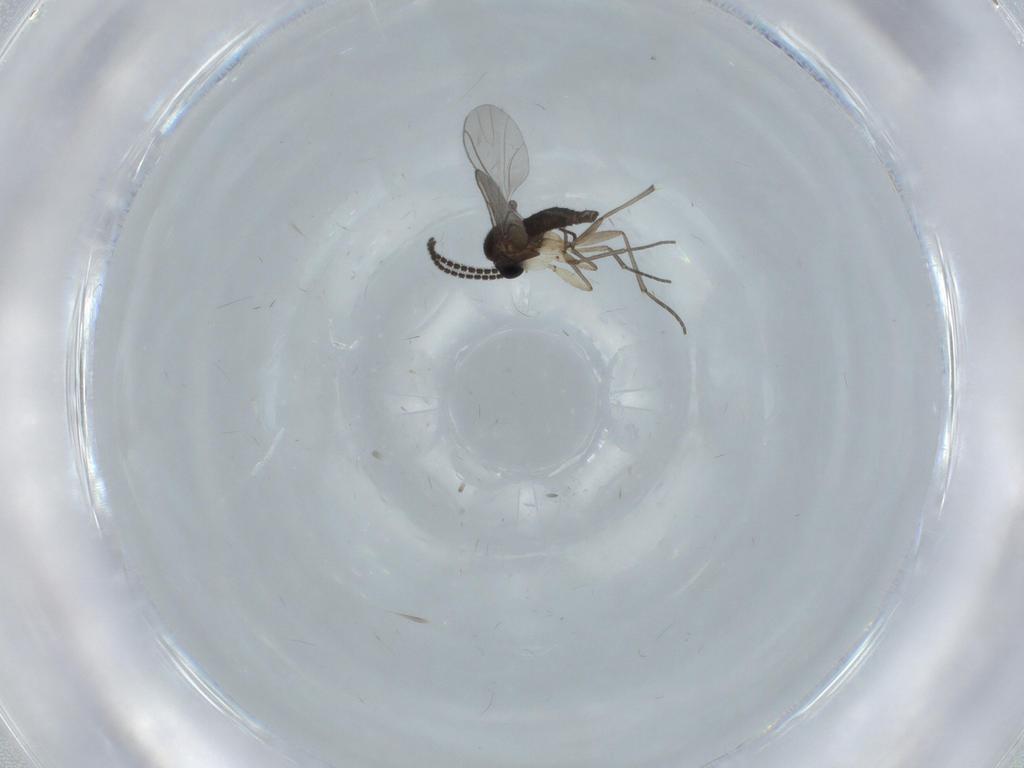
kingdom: Animalia
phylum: Arthropoda
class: Insecta
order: Diptera
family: Sciaridae
